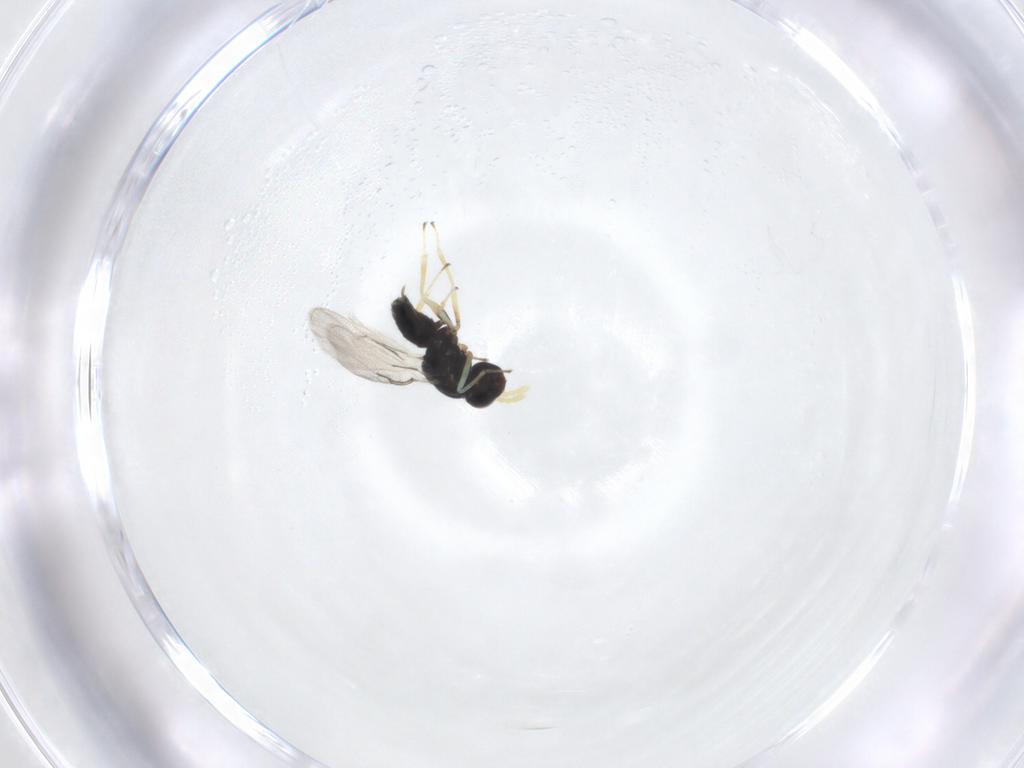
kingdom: Animalia
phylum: Arthropoda
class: Insecta
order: Hymenoptera
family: Eulophidae
